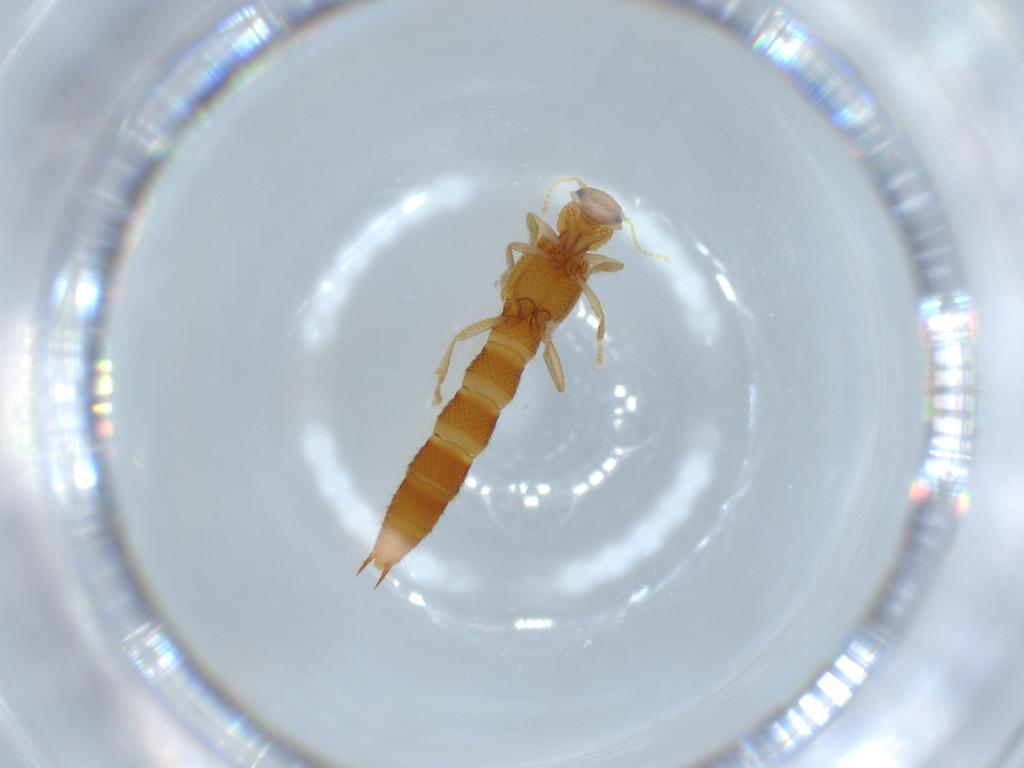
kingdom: Animalia
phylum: Arthropoda
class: Insecta
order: Coleoptera
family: Staphylinidae
